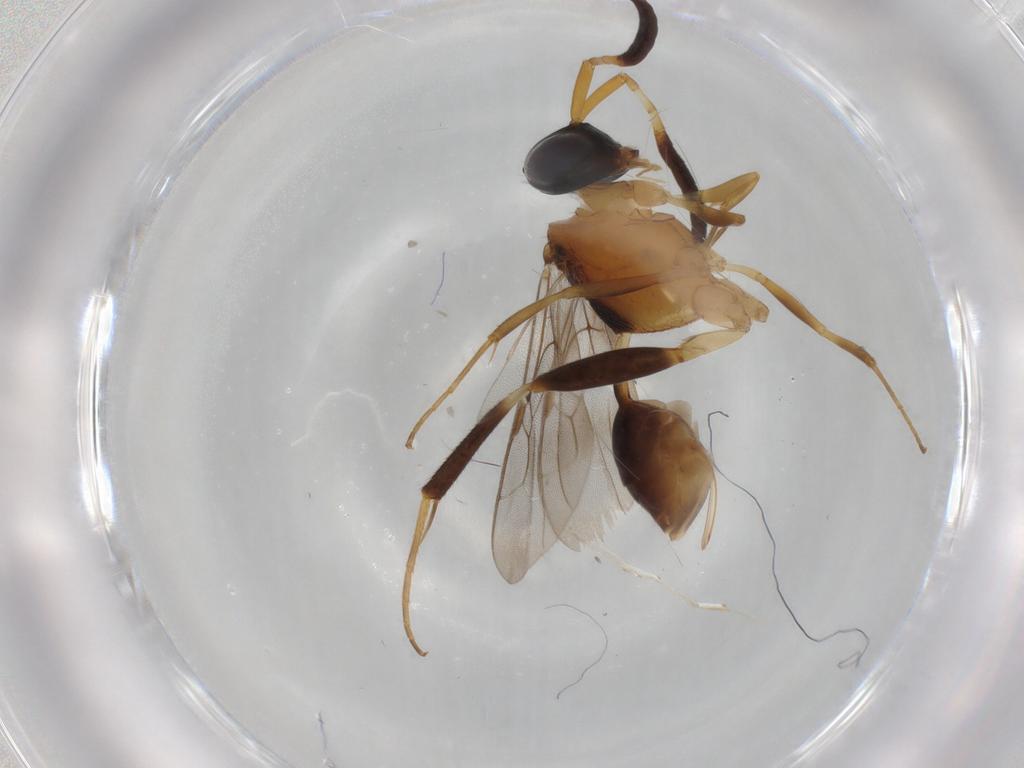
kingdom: Animalia
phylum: Arthropoda
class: Insecta
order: Hymenoptera
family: Evaniidae
